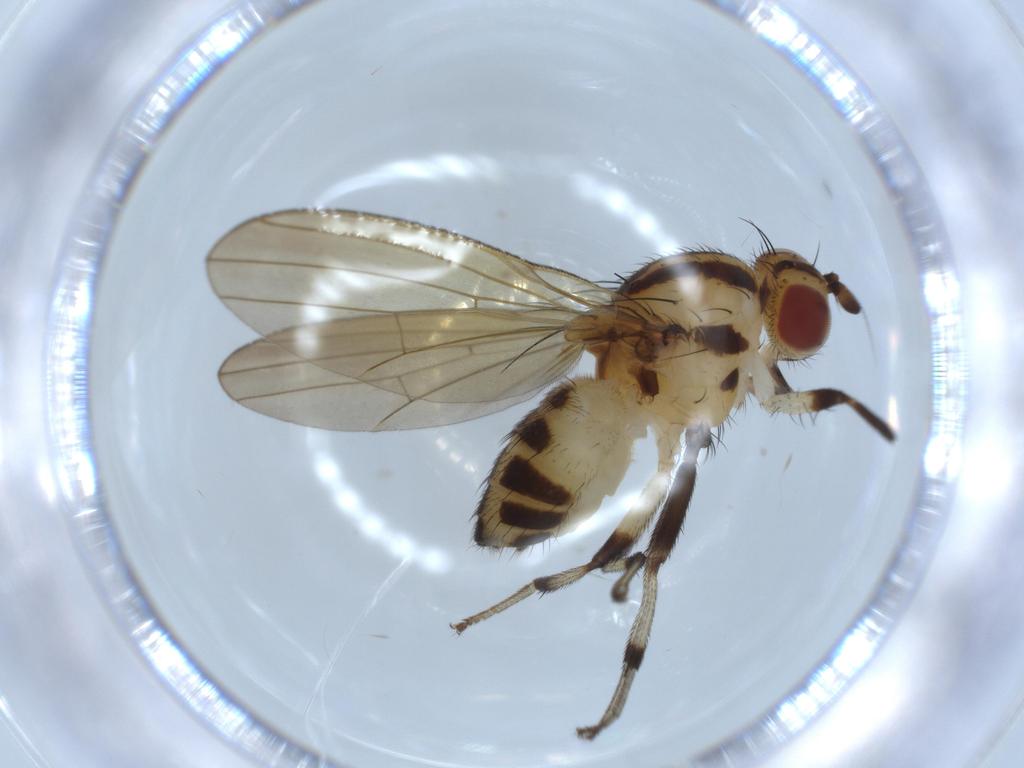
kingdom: Animalia
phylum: Arthropoda
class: Insecta
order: Diptera
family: Lauxaniidae
